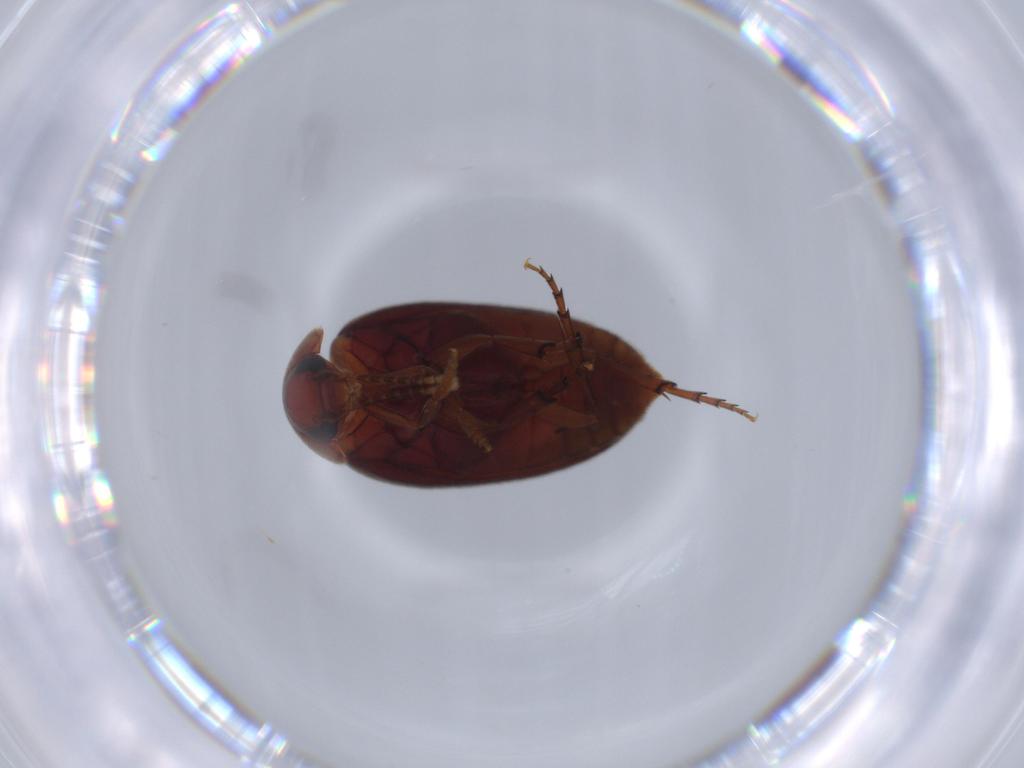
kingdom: Animalia
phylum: Arthropoda
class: Insecta
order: Coleoptera
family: Eucinetidae
